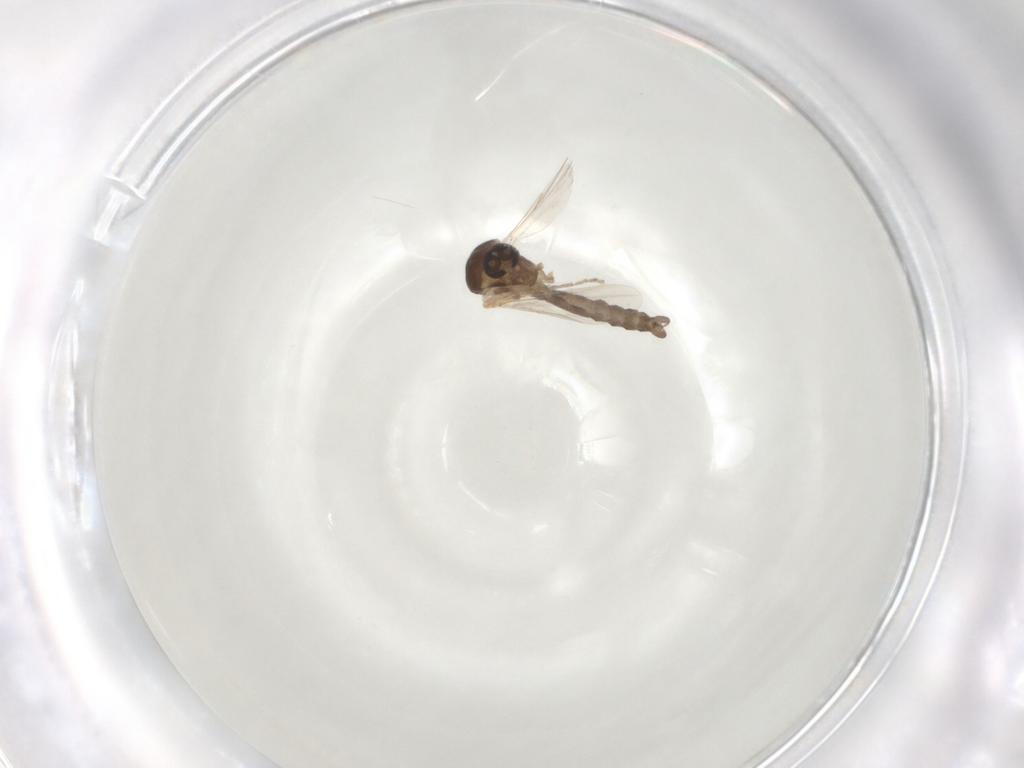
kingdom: Animalia
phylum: Arthropoda
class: Insecta
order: Diptera
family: Ceratopogonidae
